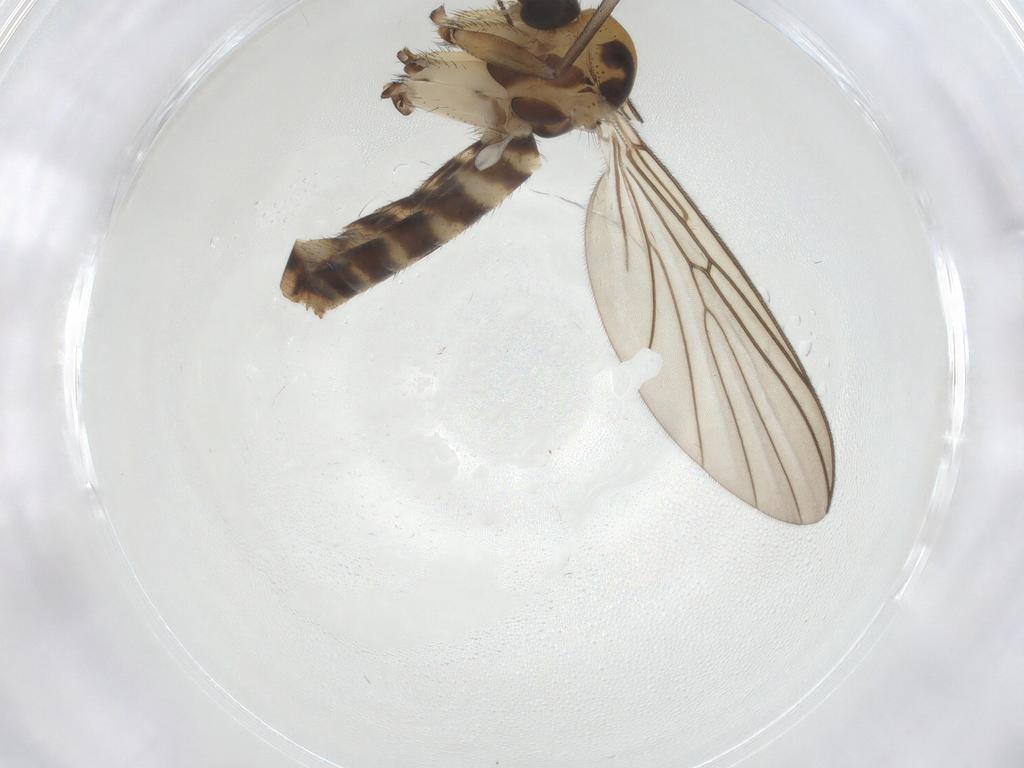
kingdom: Animalia
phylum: Arthropoda
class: Insecta
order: Diptera
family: Mycetophilidae
